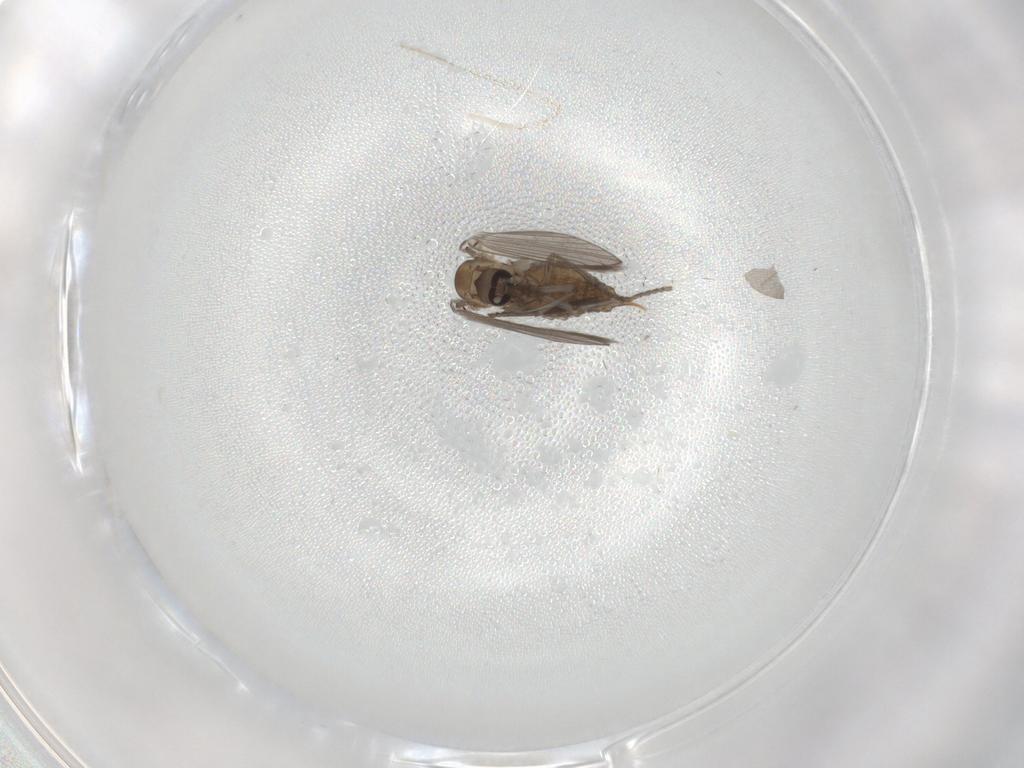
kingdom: Animalia
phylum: Arthropoda
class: Insecta
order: Diptera
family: Psychodidae
